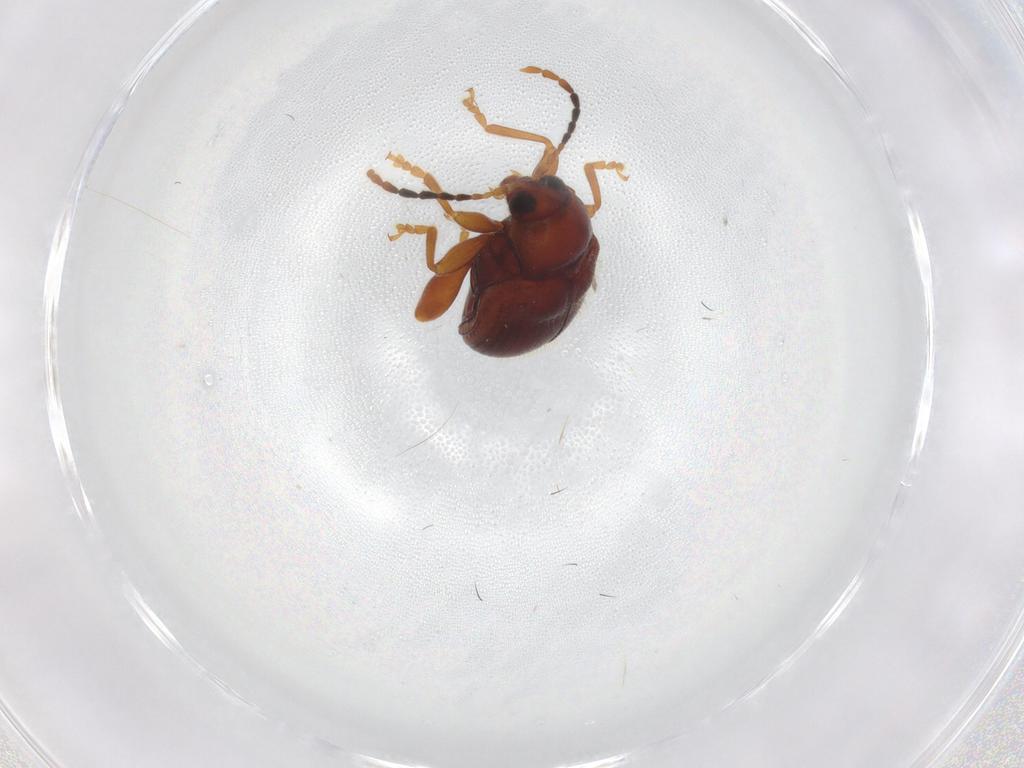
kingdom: Animalia
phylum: Arthropoda
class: Insecta
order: Coleoptera
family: Chrysomelidae
